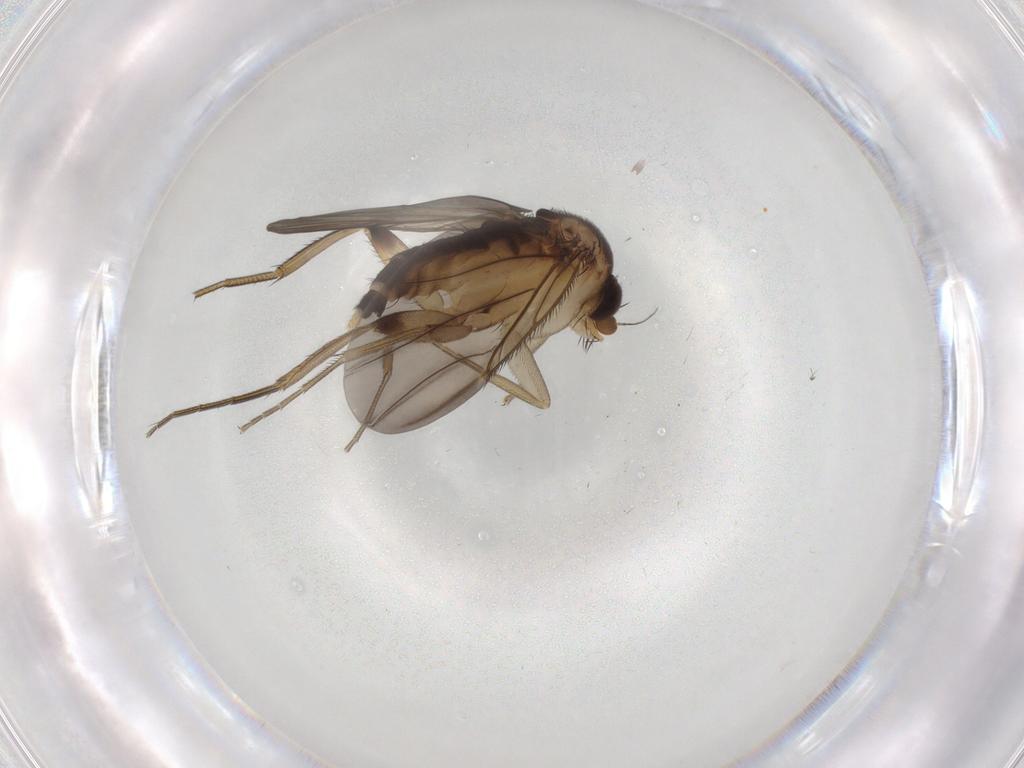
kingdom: Animalia
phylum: Arthropoda
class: Insecta
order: Diptera
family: Phoridae
